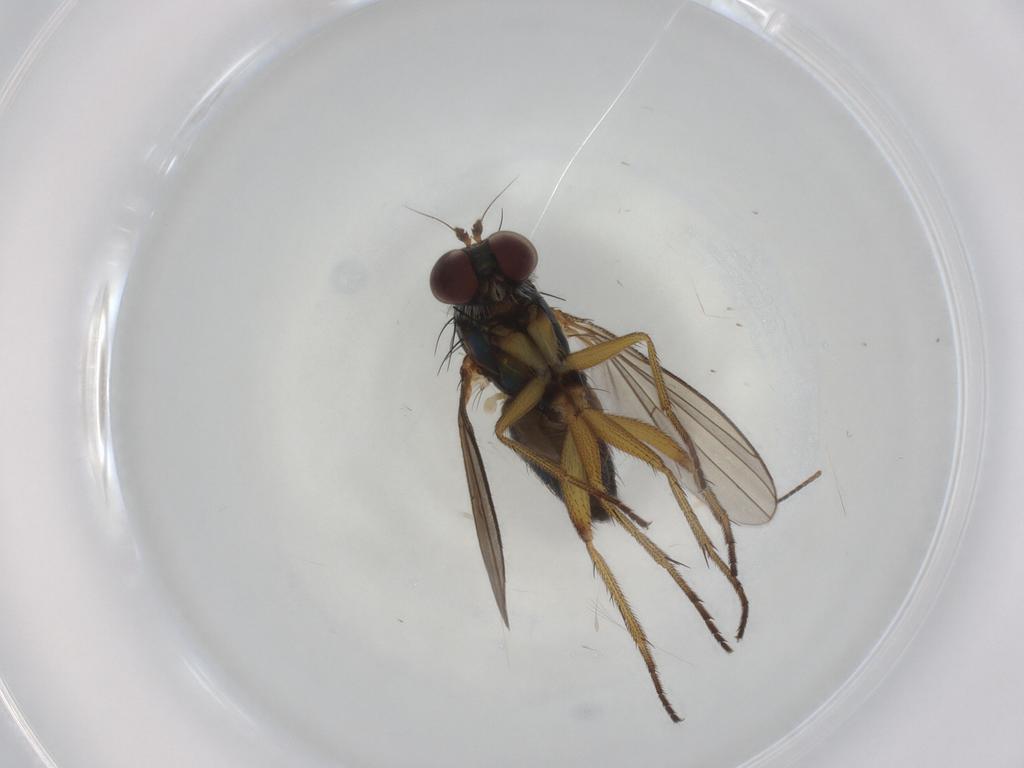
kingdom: Animalia
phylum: Arthropoda
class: Insecta
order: Diptera
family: Dolichopodidae
